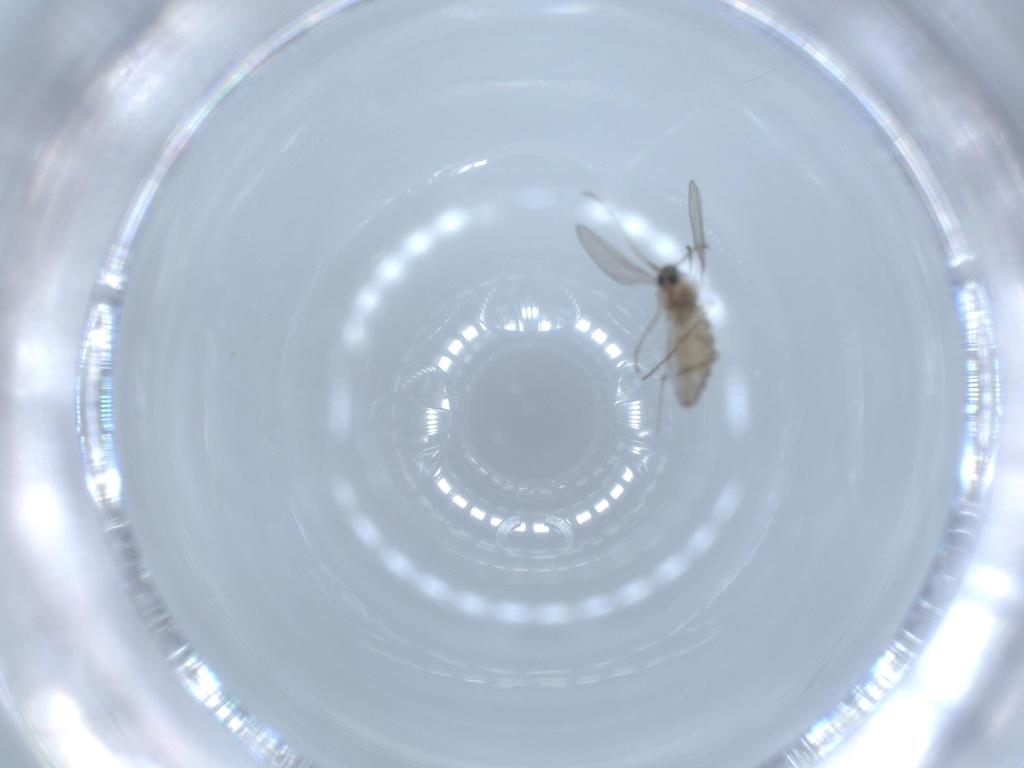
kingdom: Animalia
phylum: Arthropoda
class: Insecta
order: Diptera
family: Cecidomyiidae
